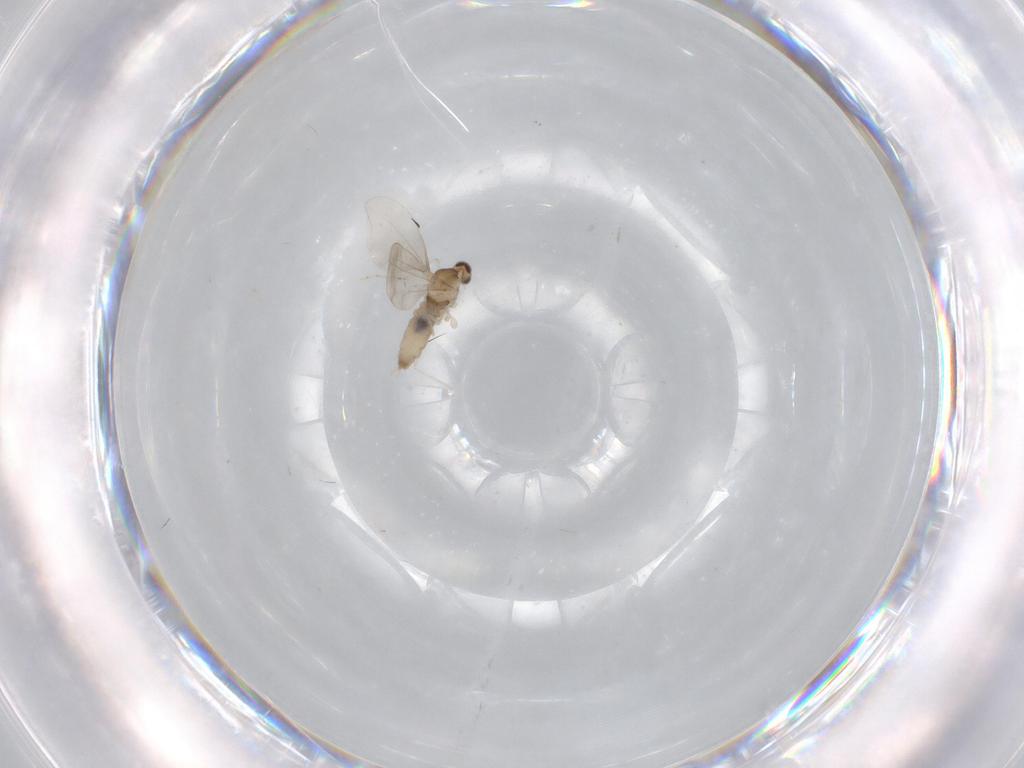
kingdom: Animalia
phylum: Arthropoda
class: Insecta
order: Diptera
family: Cecidomyiidae
